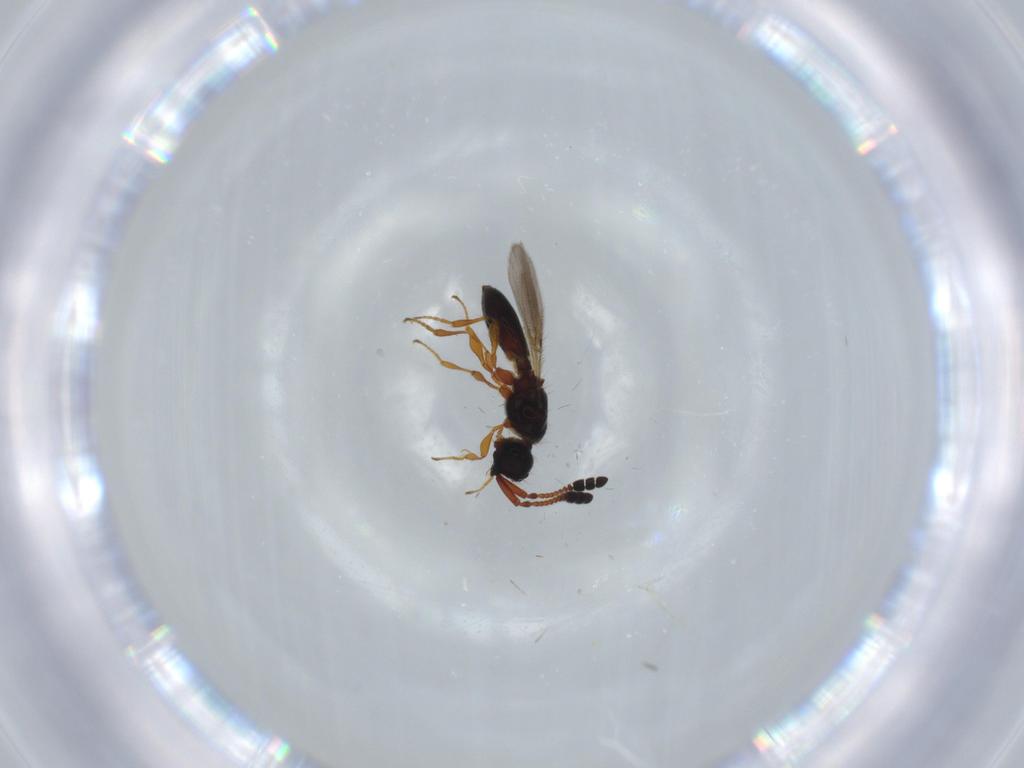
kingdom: Animalia
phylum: Arthropoda
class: Insecta
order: Hymenoptera
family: Diapriidae
